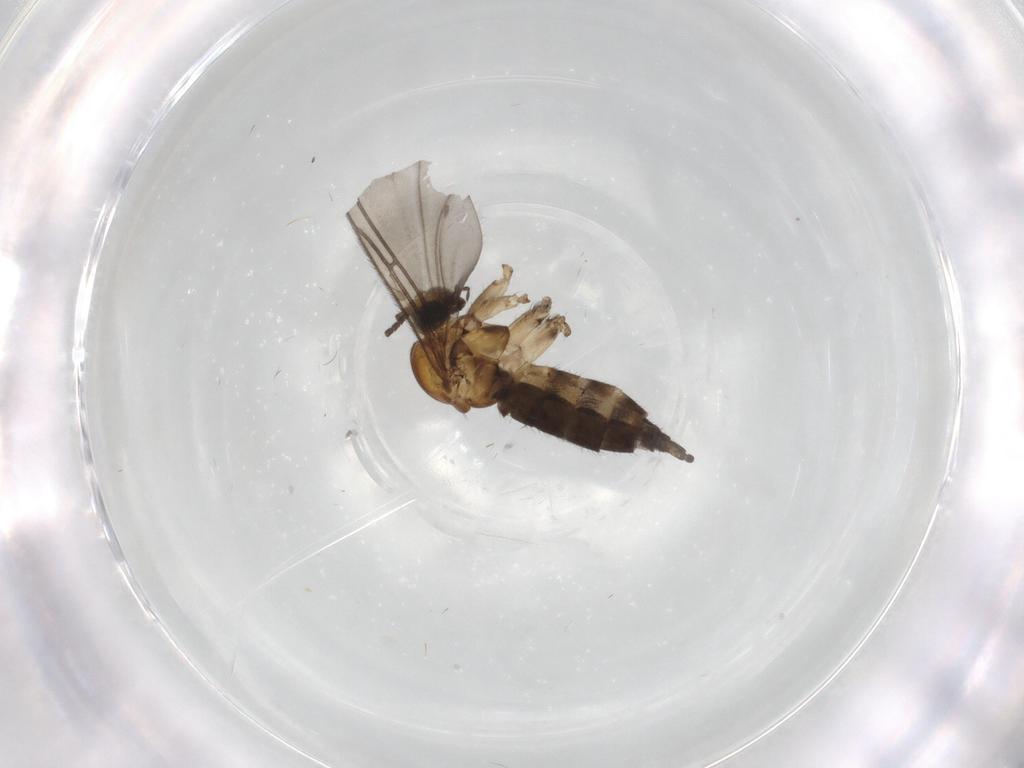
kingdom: Animalia
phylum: Arthropoda
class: Insecta
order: Diptera
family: Sciaridae
